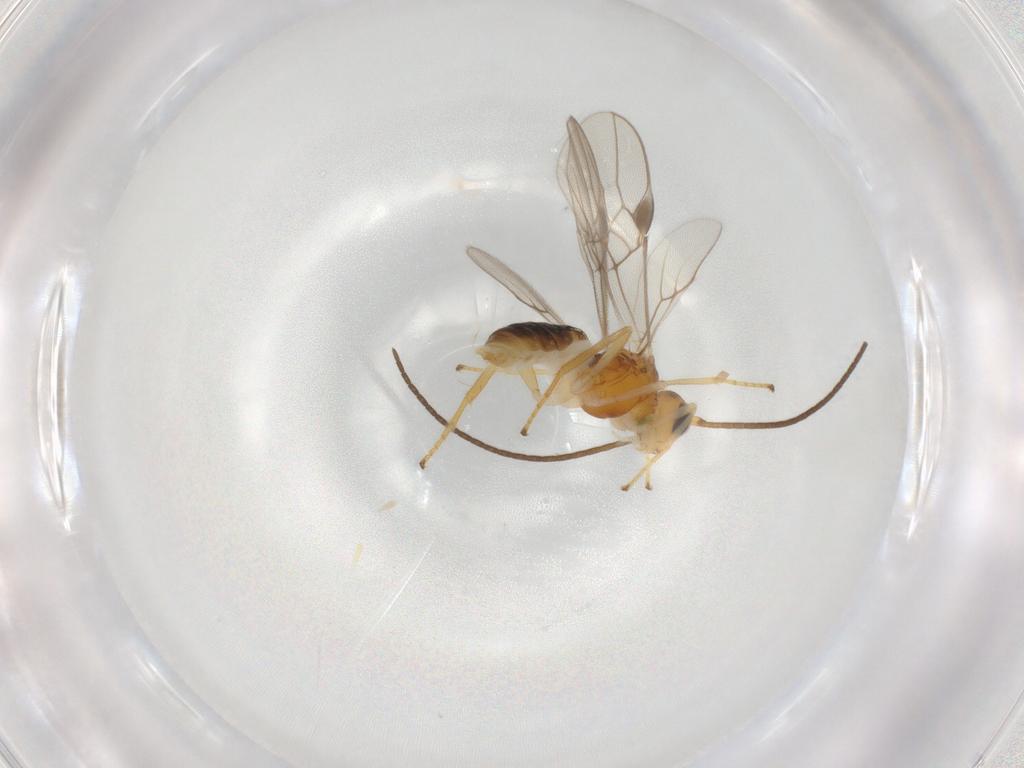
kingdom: Animalia
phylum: Arthropoda
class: Insecta
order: Hymenoptera
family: Braconidae
